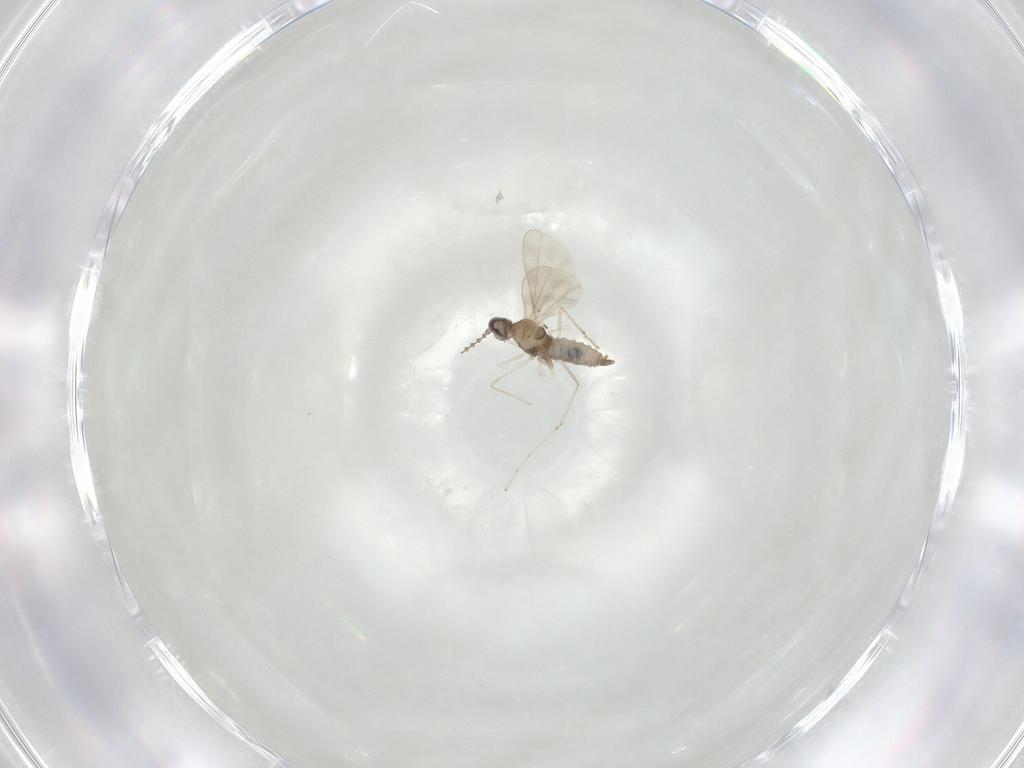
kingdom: Animalia
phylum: Arthropoda
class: Insecta
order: Diptera
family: Cecidomyiidae
